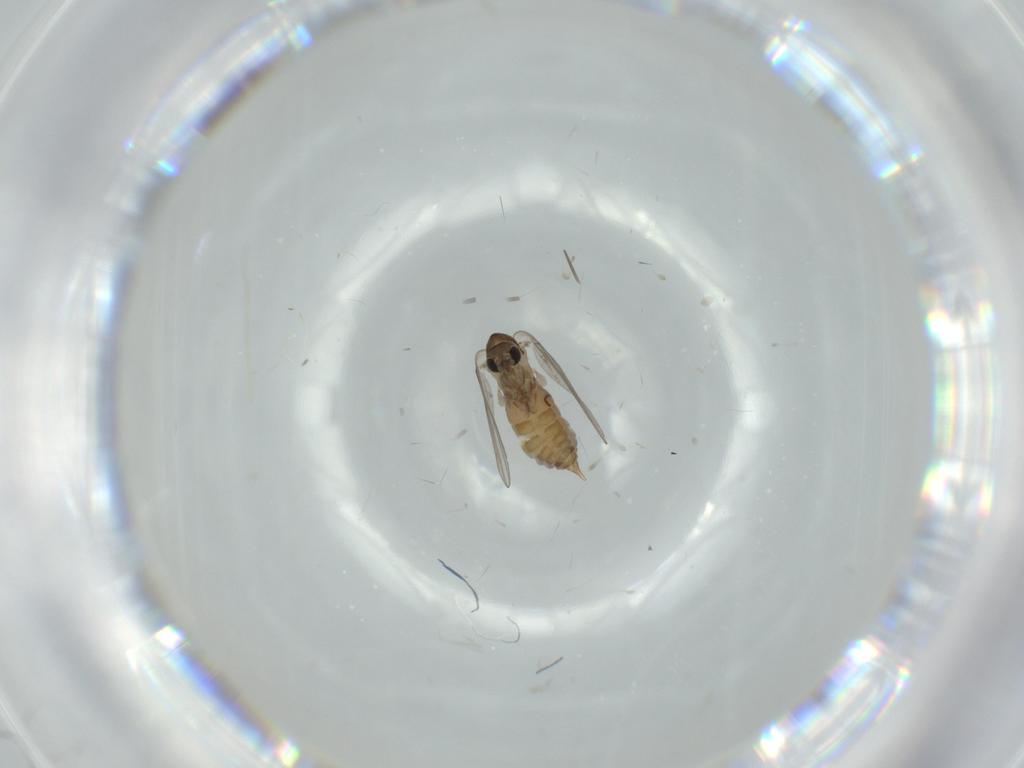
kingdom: Animalia
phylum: Arthropoda
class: Insecta
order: Diptera
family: Psychodidae
